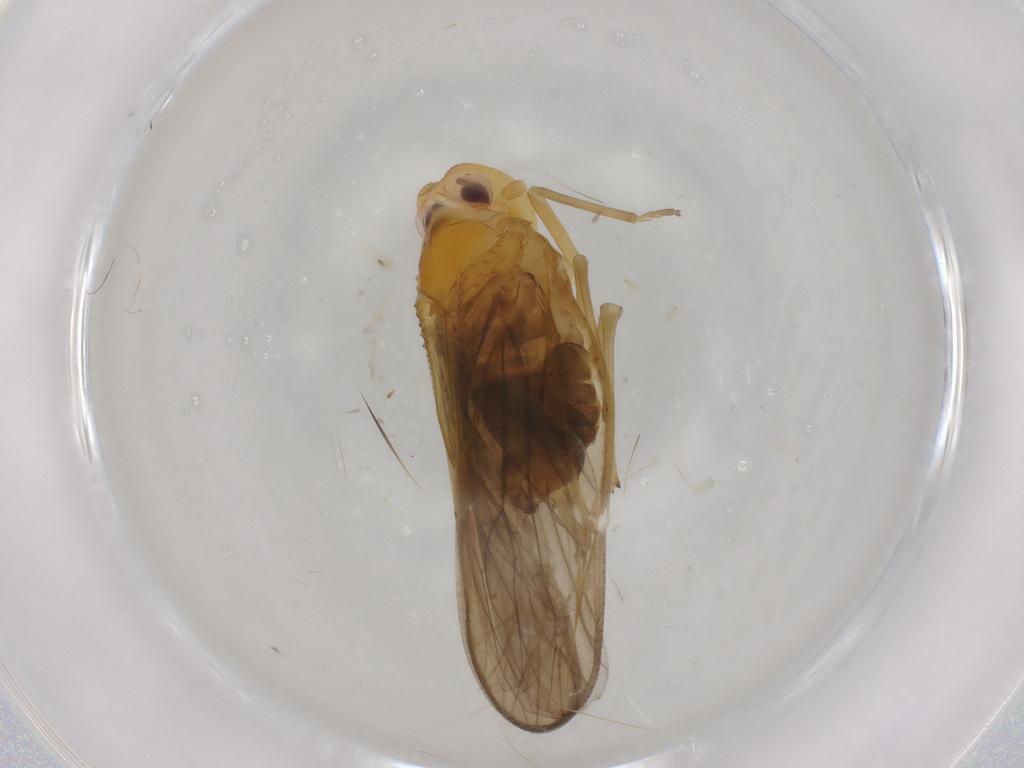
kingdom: Animalia
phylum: Arthropoda
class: Insecta
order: Hemiptera
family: Meenoplidae
